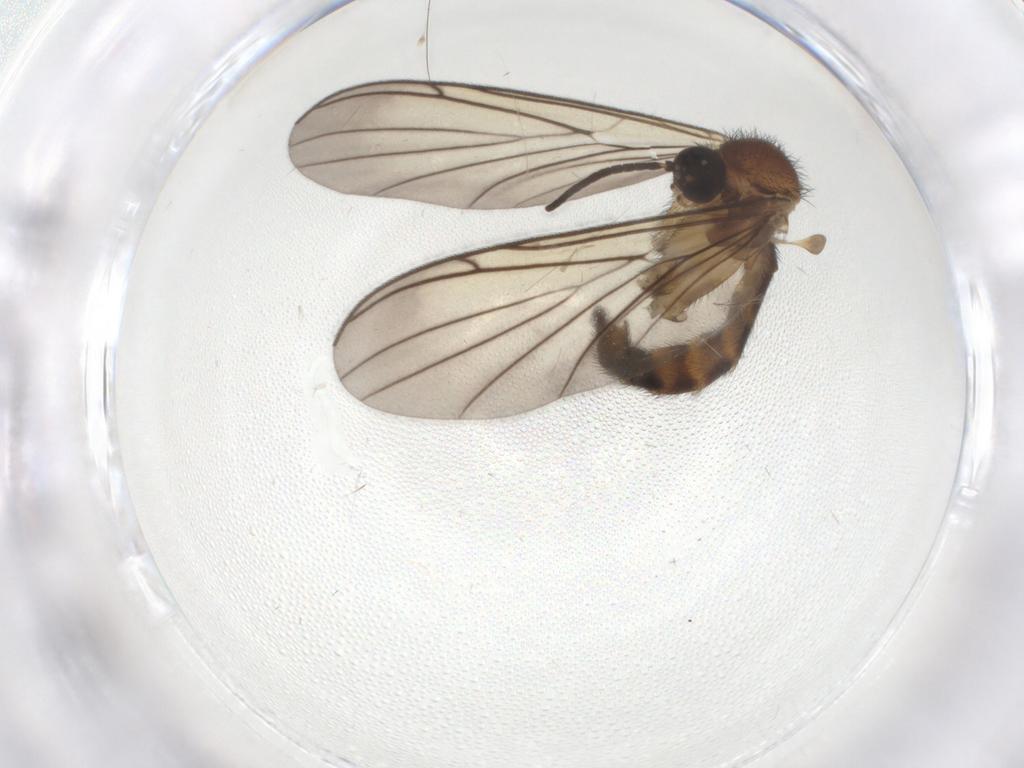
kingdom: Animalia
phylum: Arthropoda
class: Insecta
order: Diptera
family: Keroplatidae
